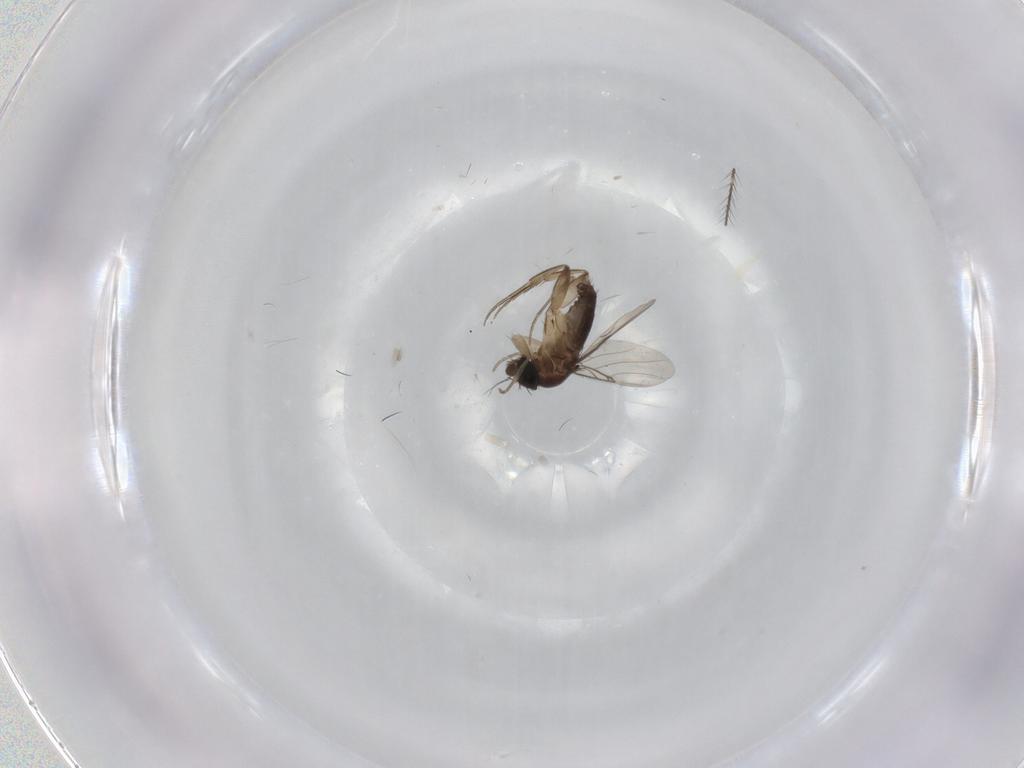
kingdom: Animalia
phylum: Arthropoda
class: Insecta
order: Diptera
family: Phoridae
